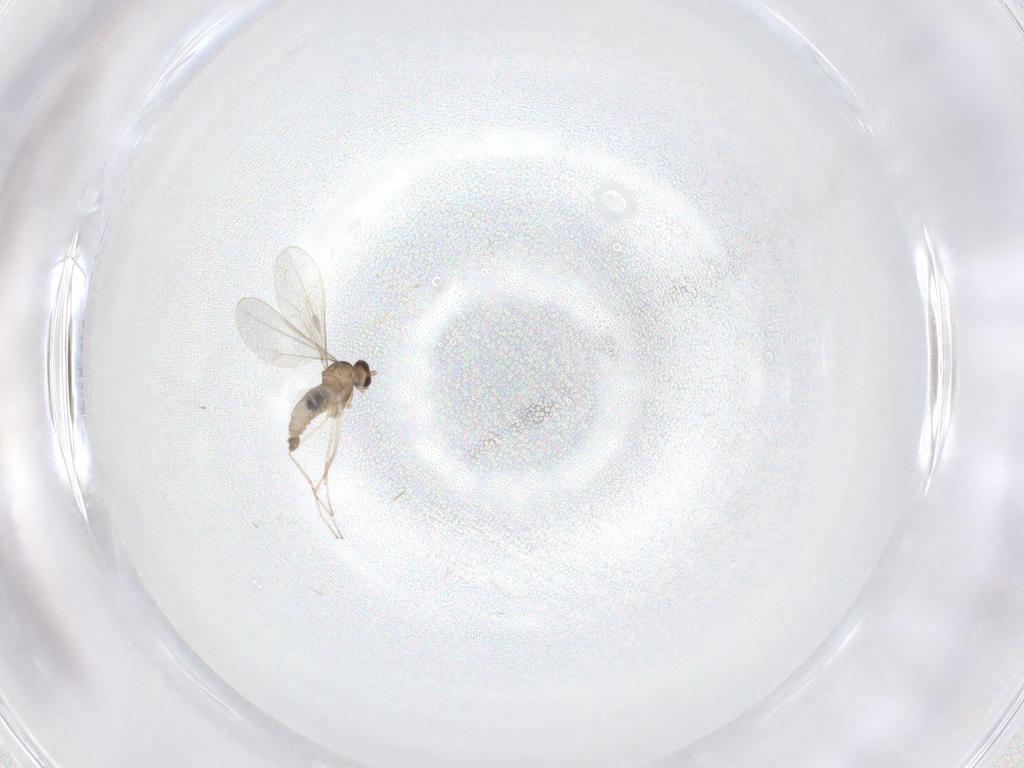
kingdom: Animalia
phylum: Arthropoda
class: Insecta
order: Diptera
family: Cecidomyiidae
